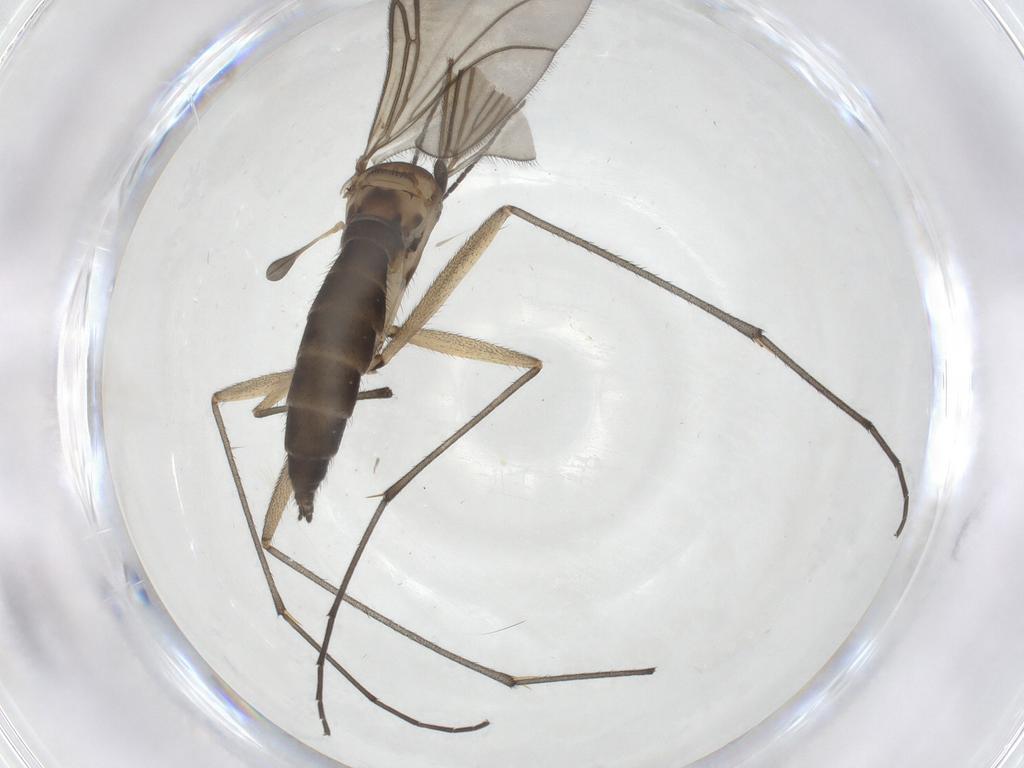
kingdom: Animalia
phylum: Arthropoda
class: Insecta
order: Diptera
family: Sciaridae
